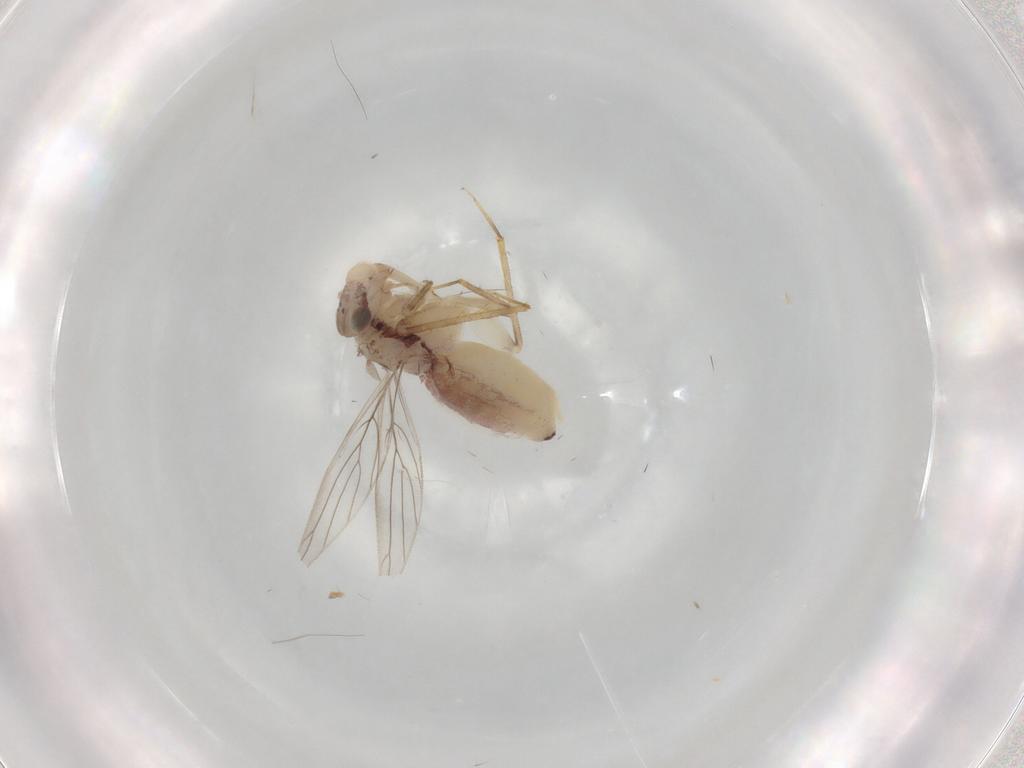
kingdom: Animalia
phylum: Arthropoda
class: Insecta
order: Psocodea
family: Lepidopsocidae
